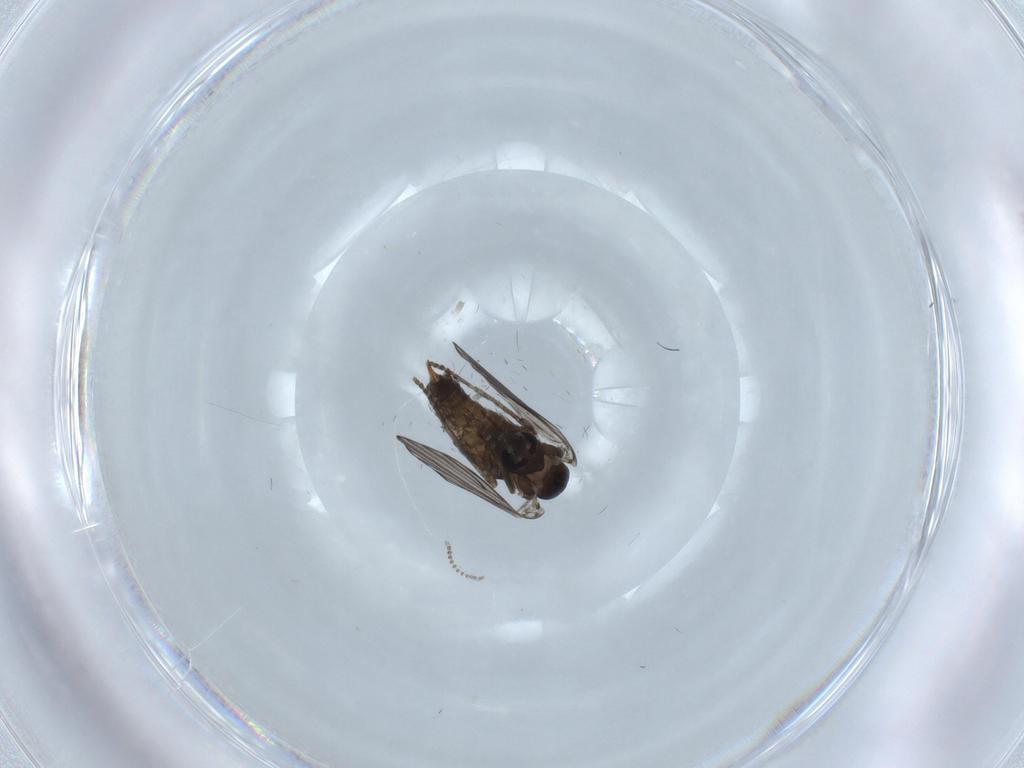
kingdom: Animalia
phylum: Arthropoda
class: Insecta
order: Diptera
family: Psychodidae
